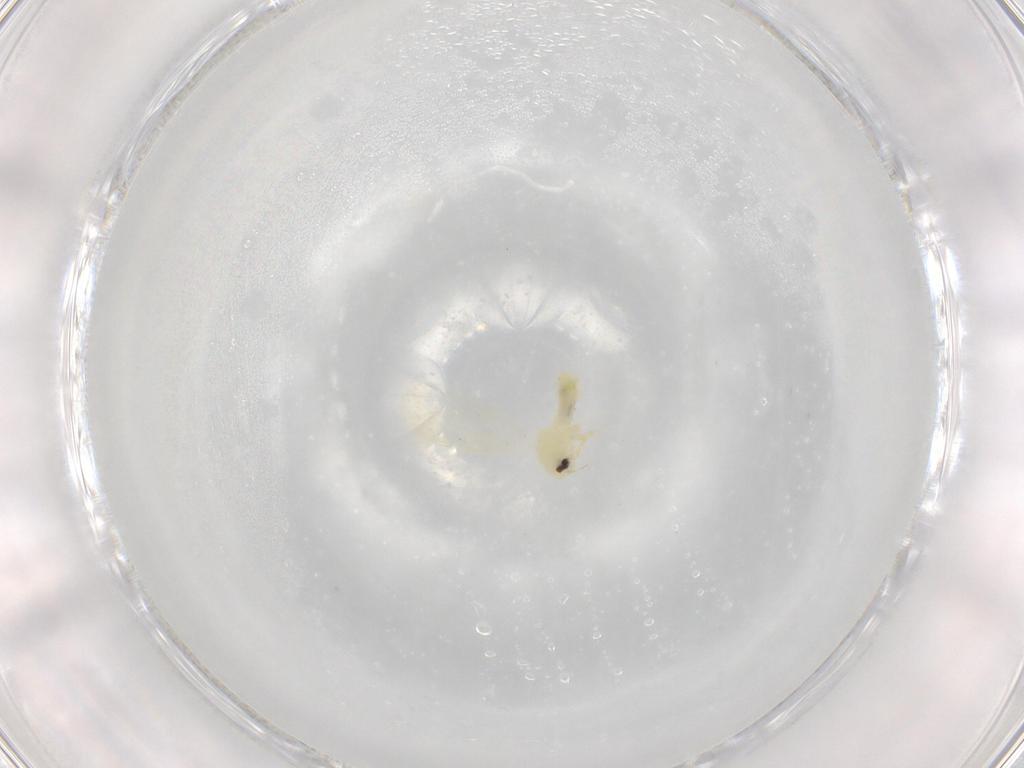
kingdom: Animalia
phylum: Arthropoda
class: Insecta
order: Hemiptera
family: Aleyrodidae
